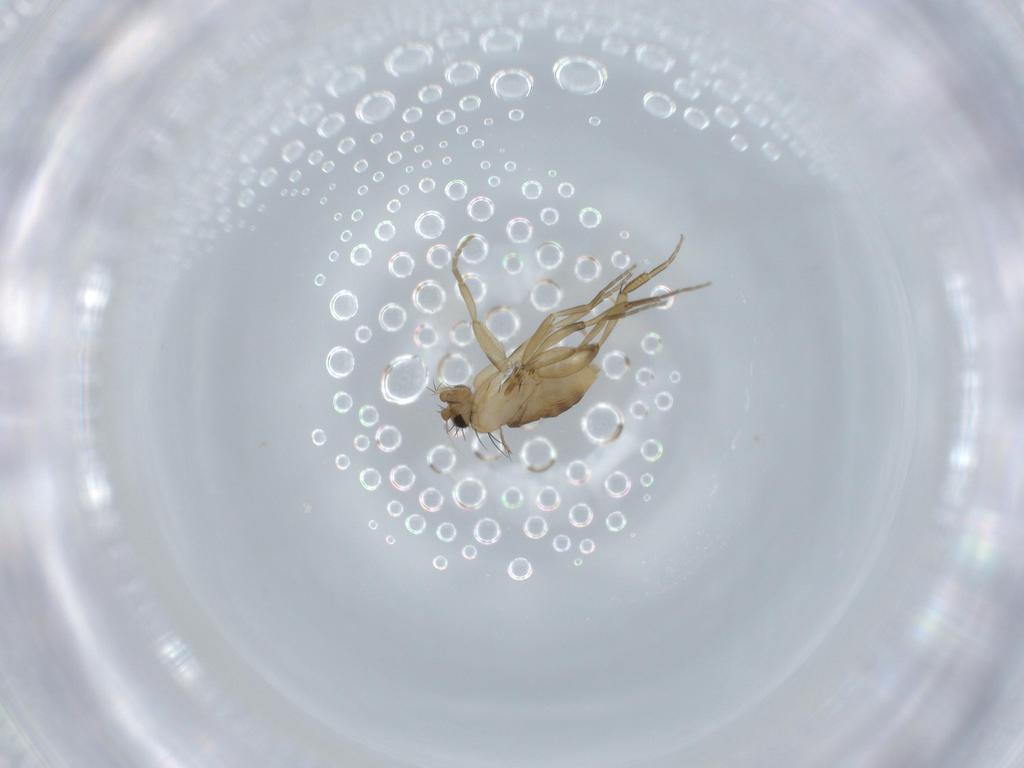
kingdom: Animalia
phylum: Arthropoda
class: Insecta
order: Diptera
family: Phoridae
